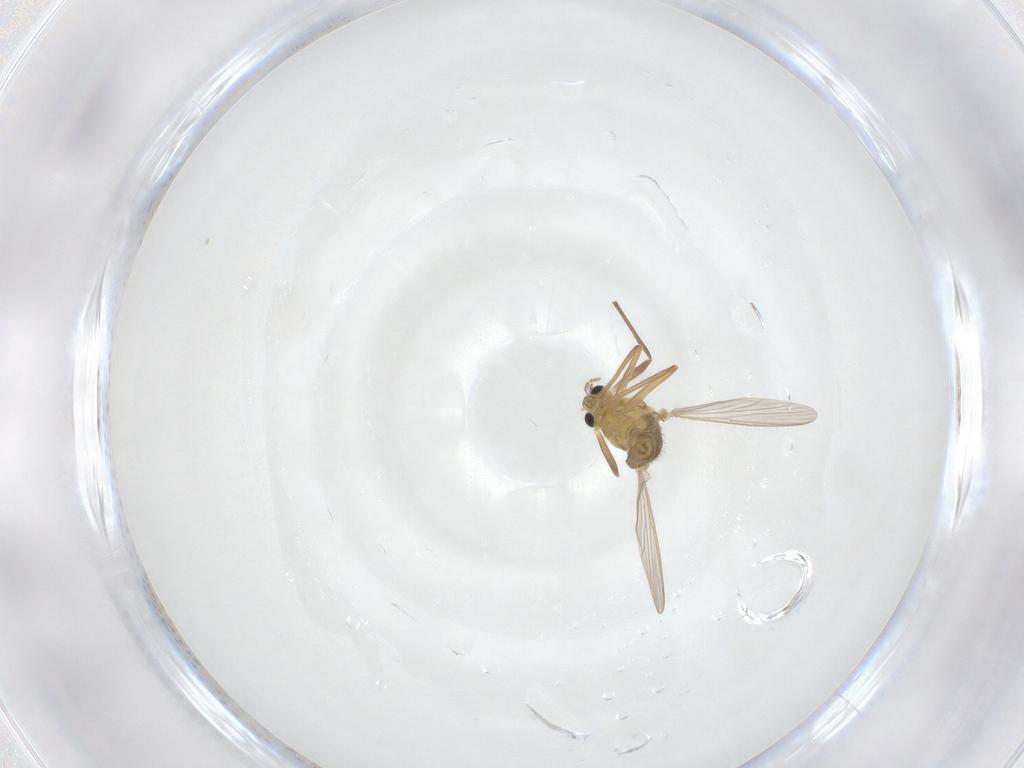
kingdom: Animalia
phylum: Arthropoda
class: Insecta
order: Diptera
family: Chironomidae
